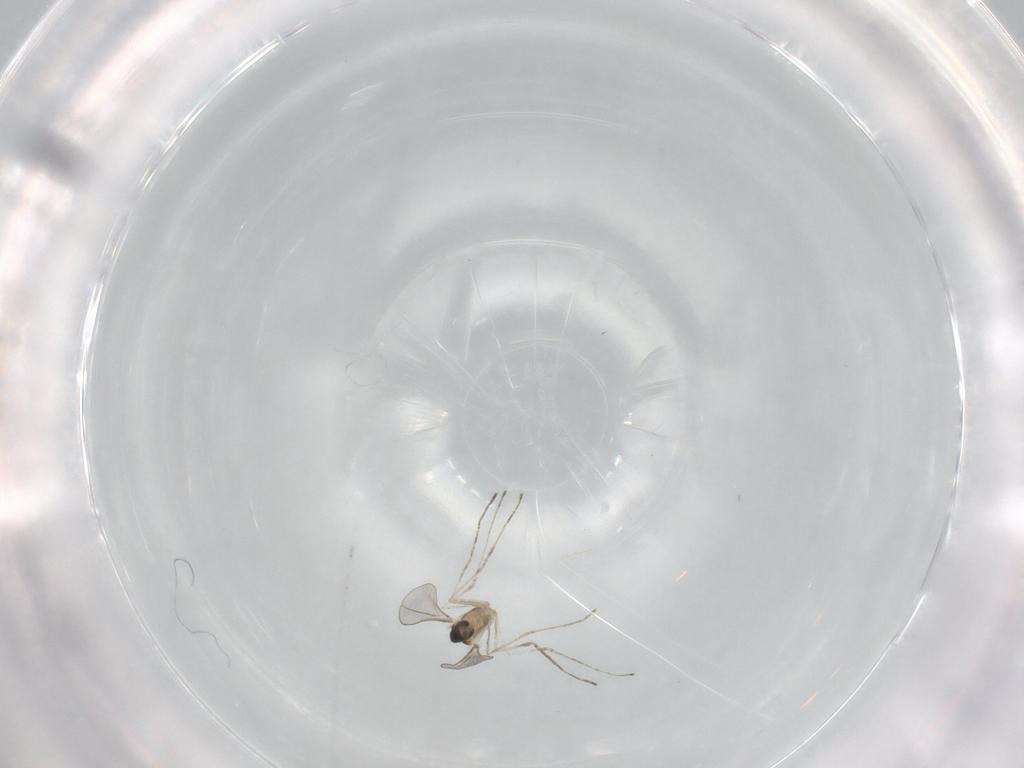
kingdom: Animalia
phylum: Arthropoda
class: Insecta
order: Diptera
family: Cecidomyiidae
